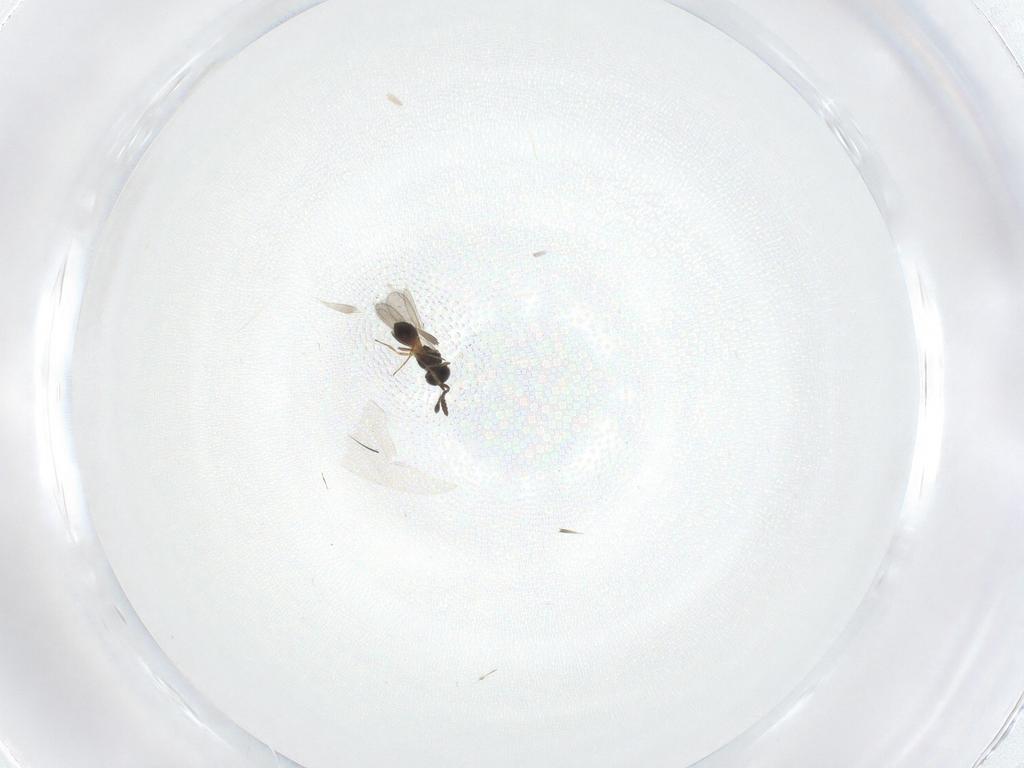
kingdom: Animalia
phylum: Arthropoda
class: Insecta
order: Hymenoptera
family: Scelionidae
